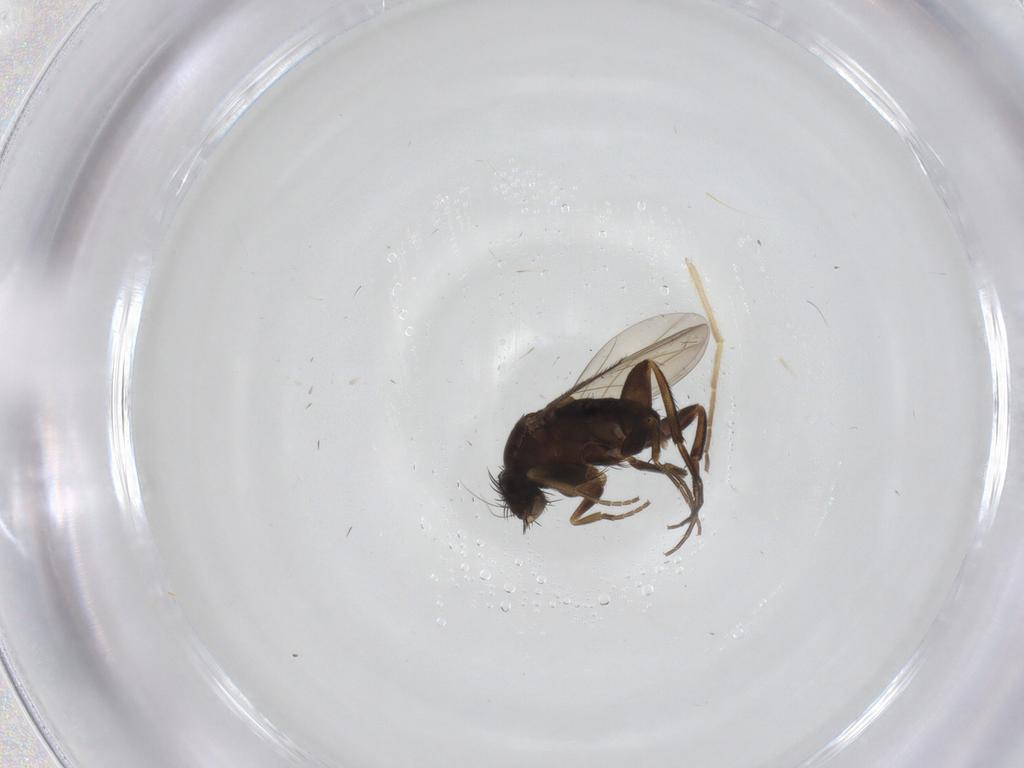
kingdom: Animalia
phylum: Arthropoda
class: Insecta
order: Diptera
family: Phoridae
